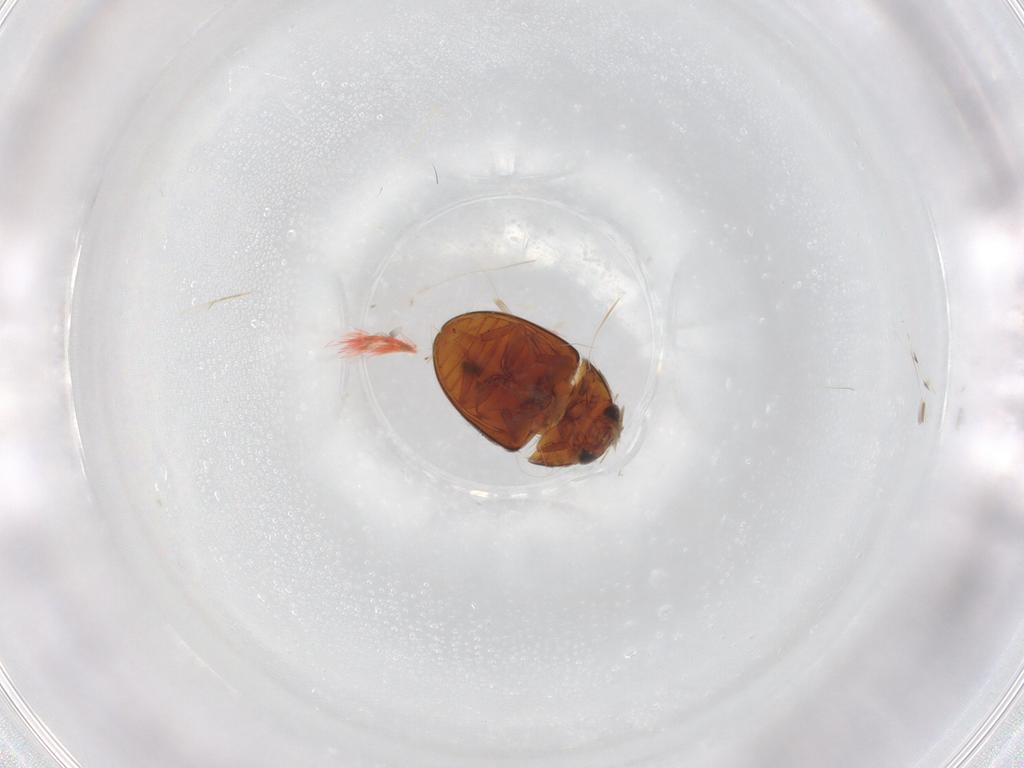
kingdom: Animalia
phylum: Arthropoda
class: Insecta
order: Coleoptera
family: Phalacridae
